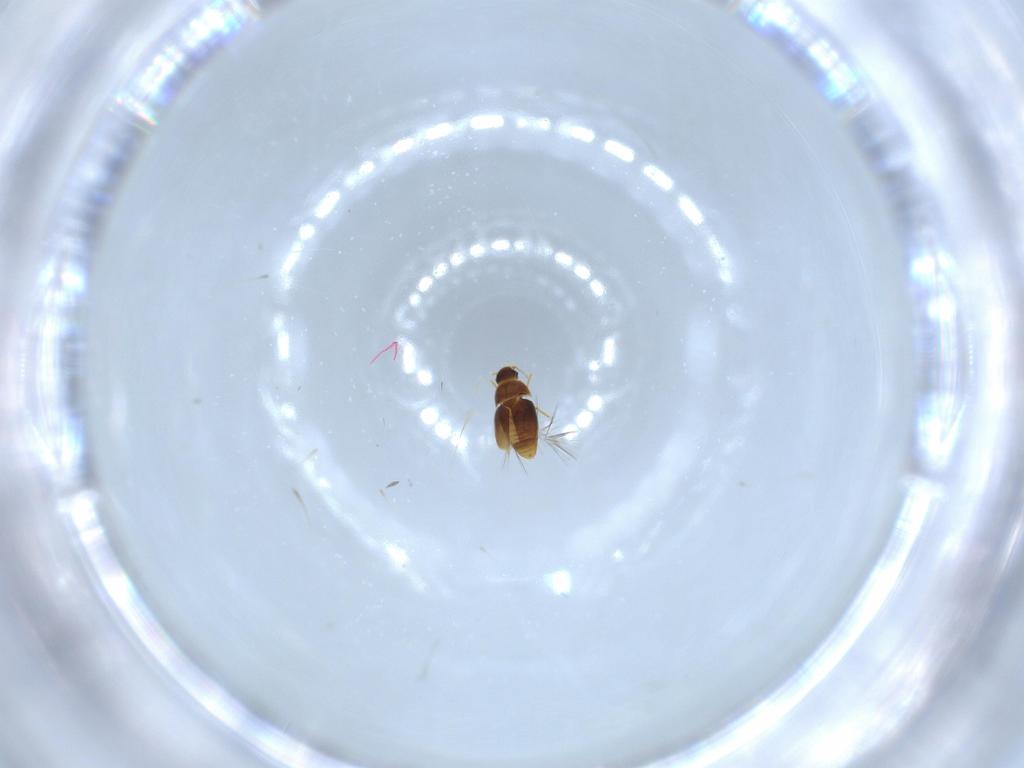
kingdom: Animalia
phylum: Arthropoda
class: Insecta
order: Coleoptera
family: Ptiliidae
